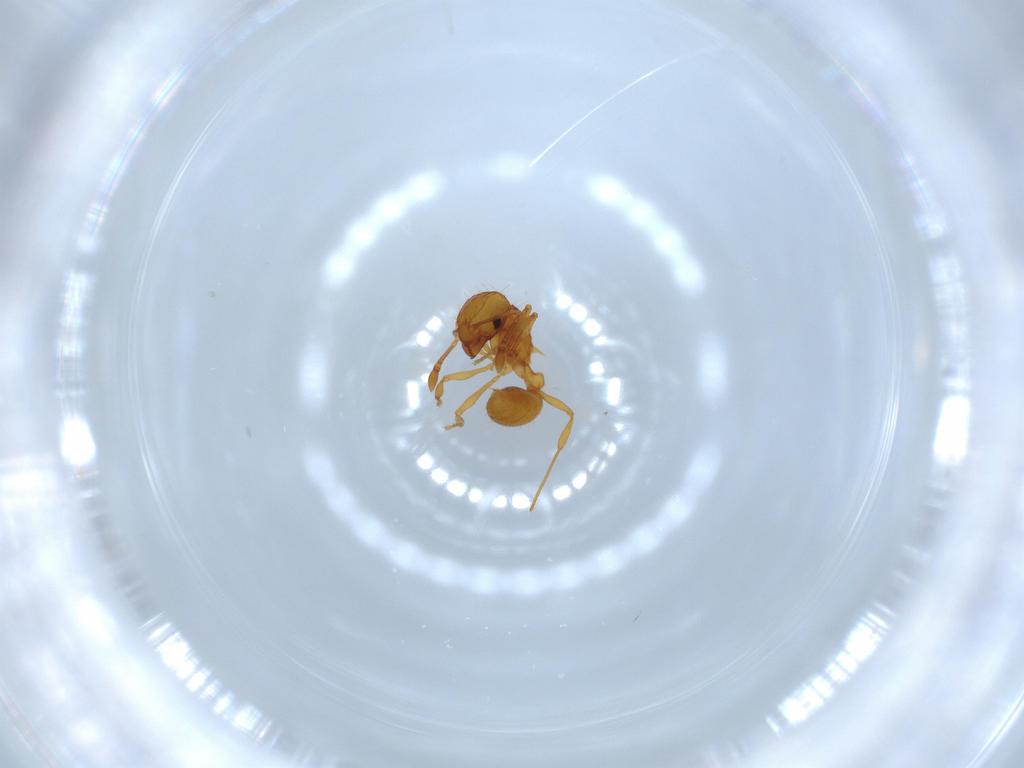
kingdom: Animalia
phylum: Arthropoda
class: Insecta
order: Hymenoptera
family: Formicidae
